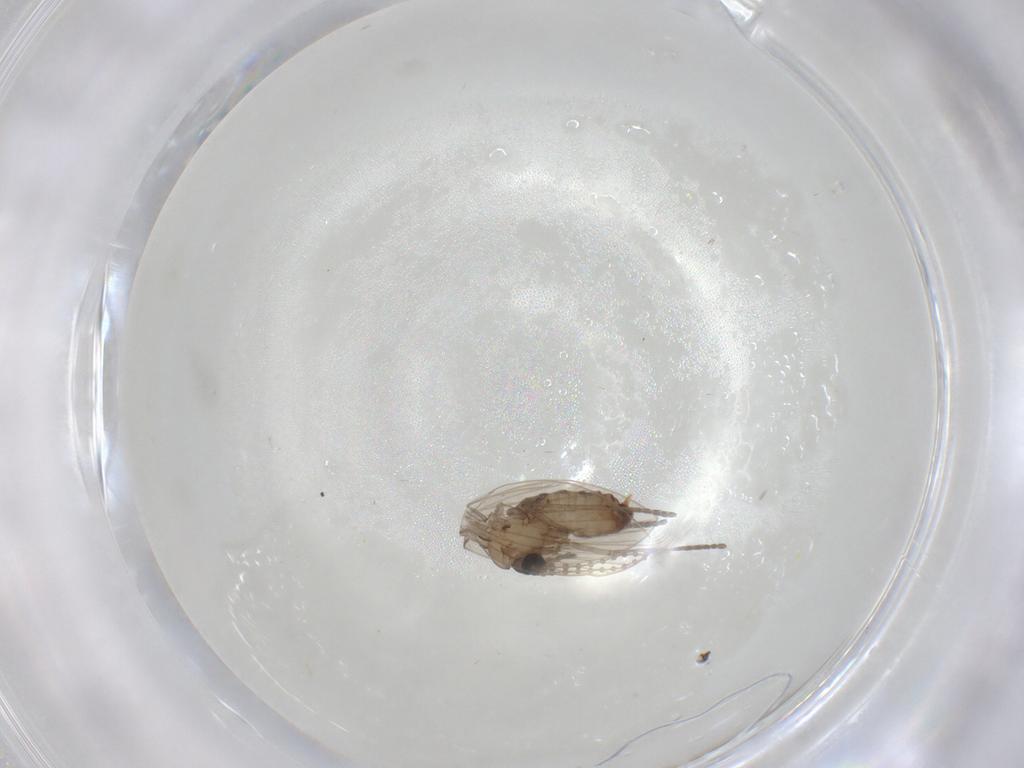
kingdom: Animalia
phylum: Arthropoda
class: Insecta
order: Diptera
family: Psychodidae
